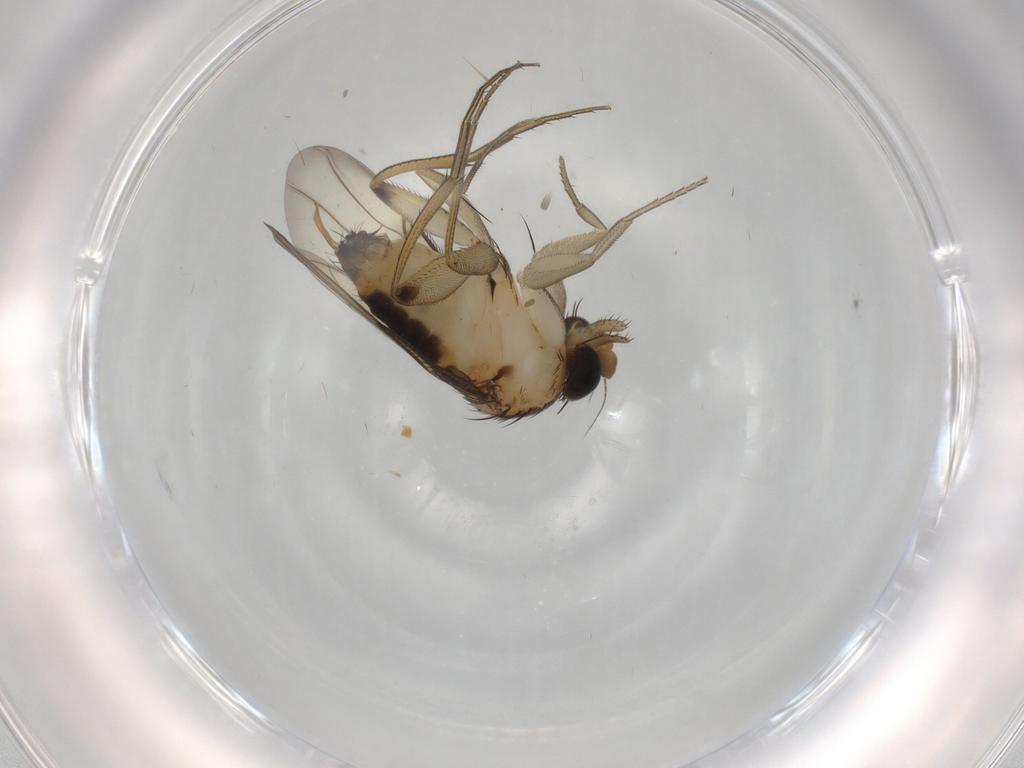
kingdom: Animalia
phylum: Arthropoda
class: Insecta
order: Diptera
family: Phoridae
